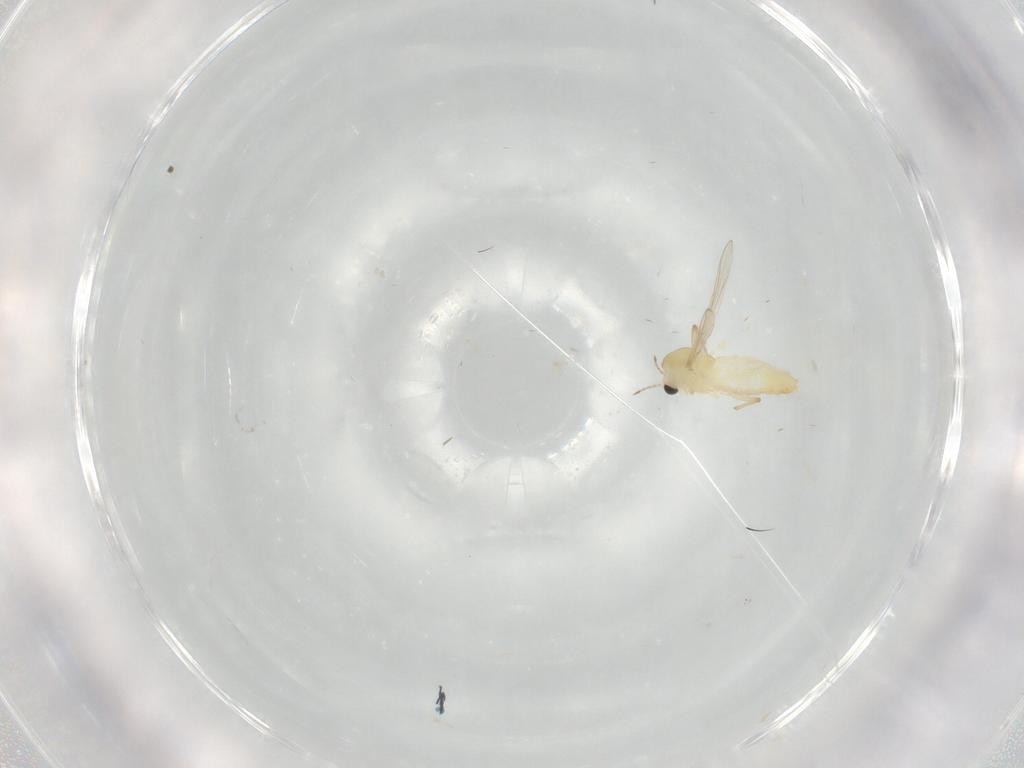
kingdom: Animalia
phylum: Arthropoda
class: Insecta
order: Diptera
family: Chironomidae
